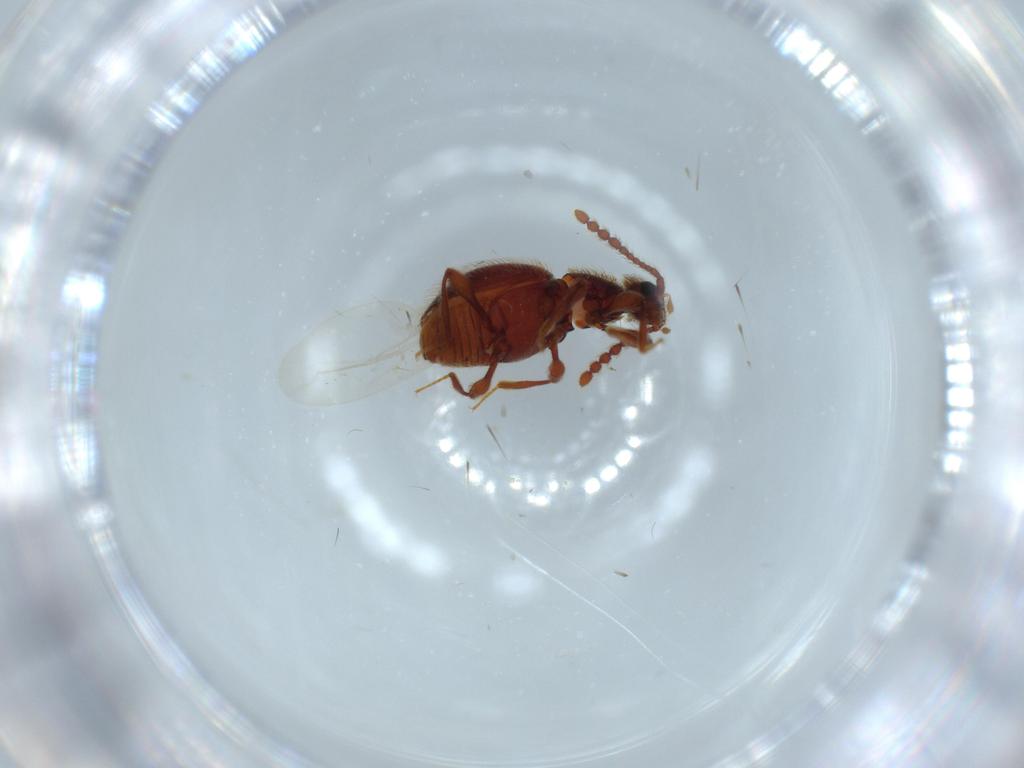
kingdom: Animalia
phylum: Arthropoda
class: Insecta
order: Coleoptera
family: Staphylinidae
